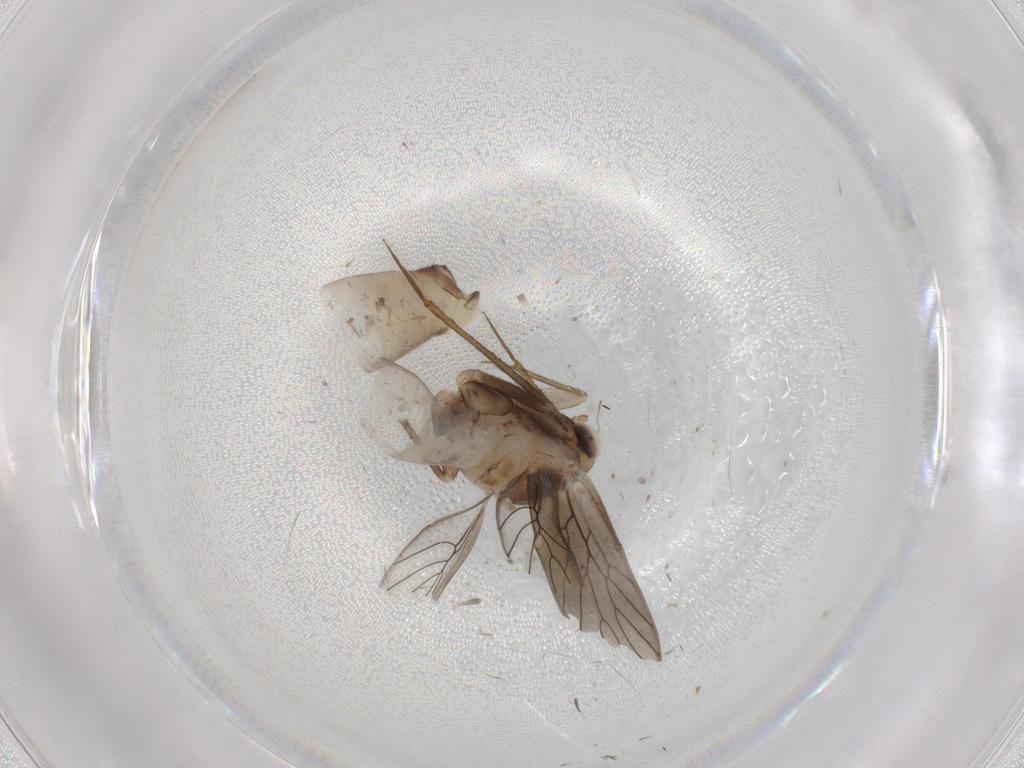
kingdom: Animalia
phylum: Arthropoda
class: Insecta
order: Psocodea
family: Lepidopsocidae
